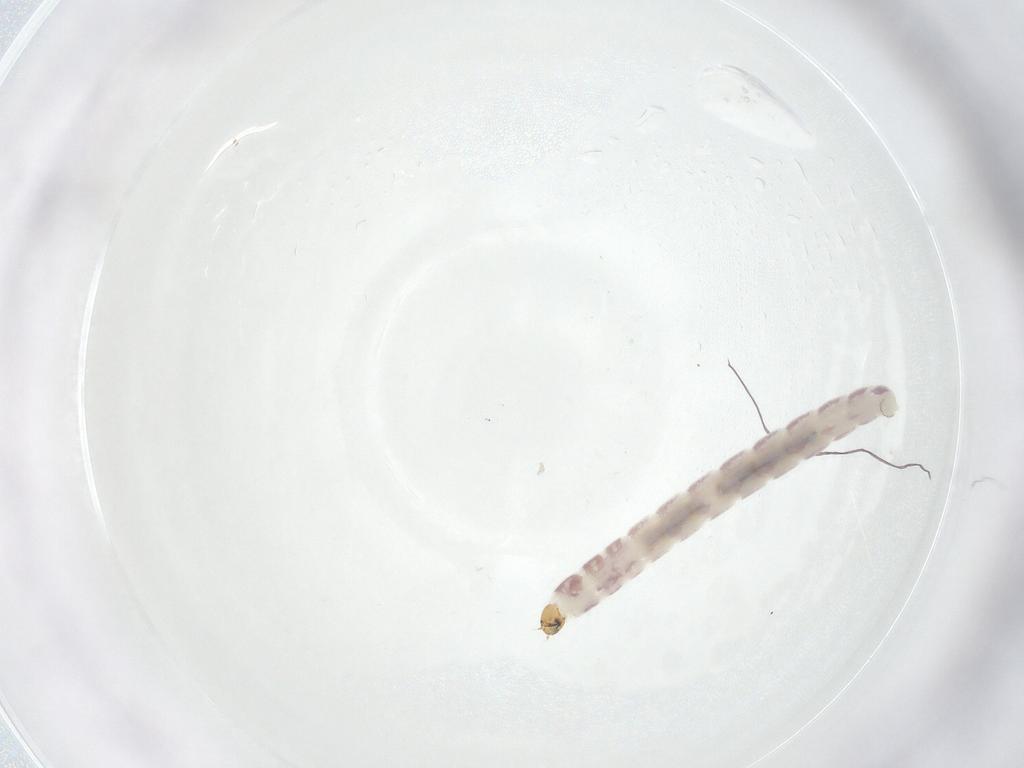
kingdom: Animalia
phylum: Arthropoda
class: Insecta
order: Diptera
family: Chironomidae
